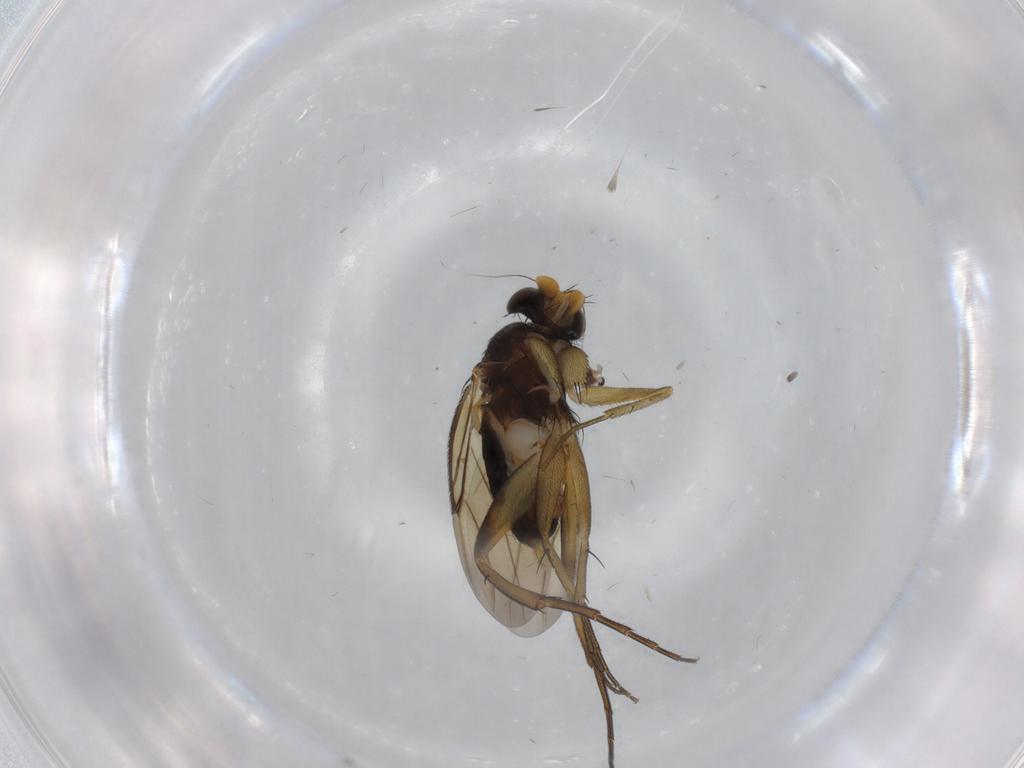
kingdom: Animalia
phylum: Arthropoda
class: Insecta
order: Diptera
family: Phoridae
